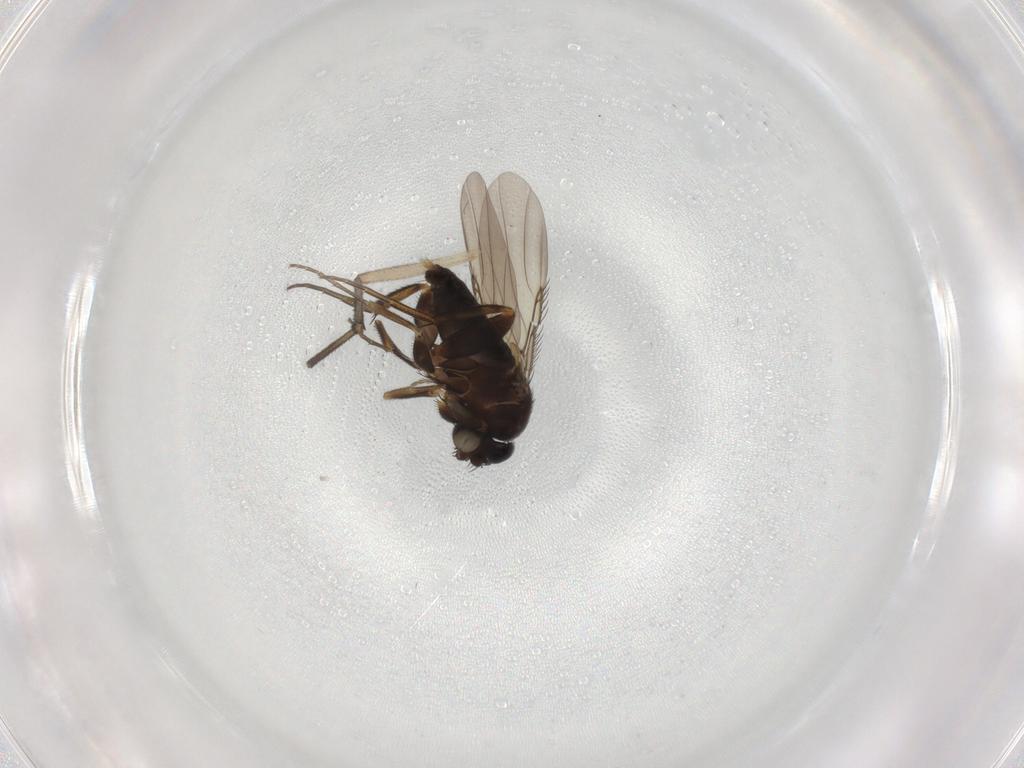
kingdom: Animalia
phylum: Arthropoda
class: Insecta
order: Diptera
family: Phoridae
